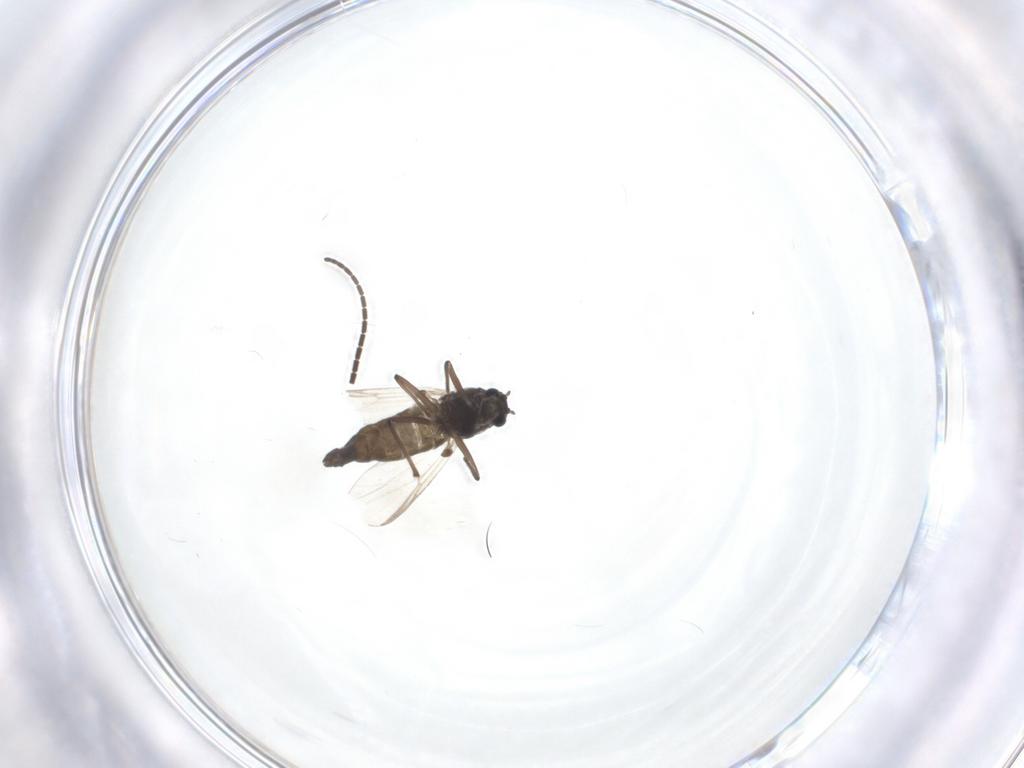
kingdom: Animalia
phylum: Arthropoda
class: Insecta
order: Diptera
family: Chironomidae
